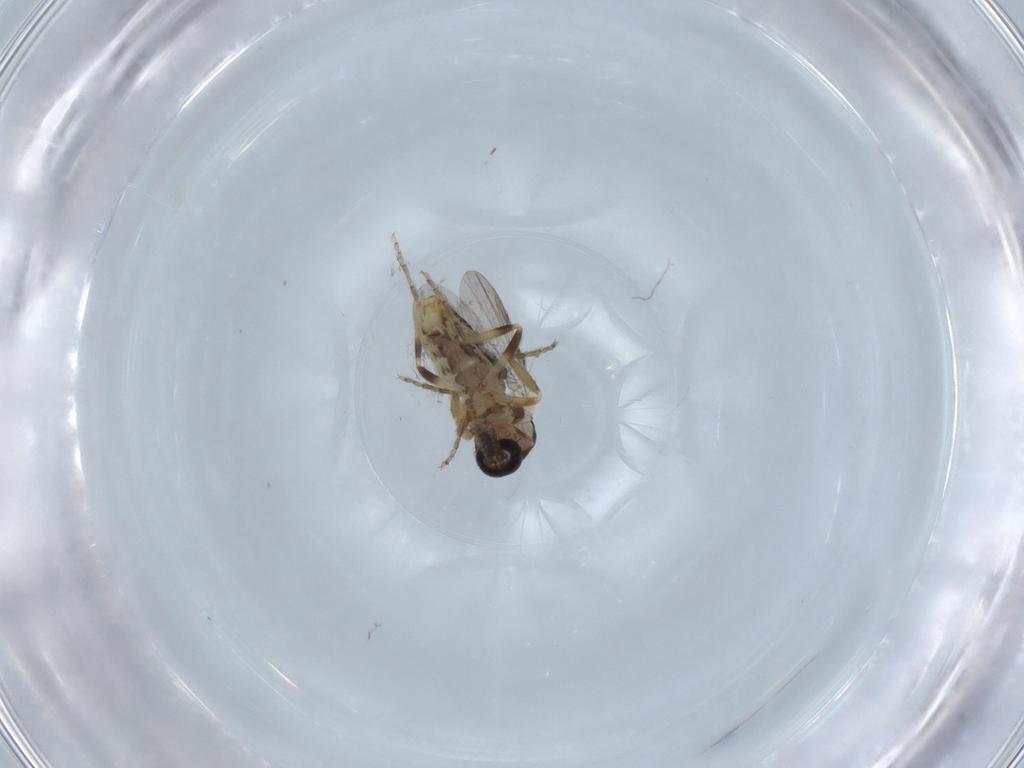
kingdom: Animalia
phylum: Arthropoda
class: Insecta
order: Diptera
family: Ceratopogonidae
